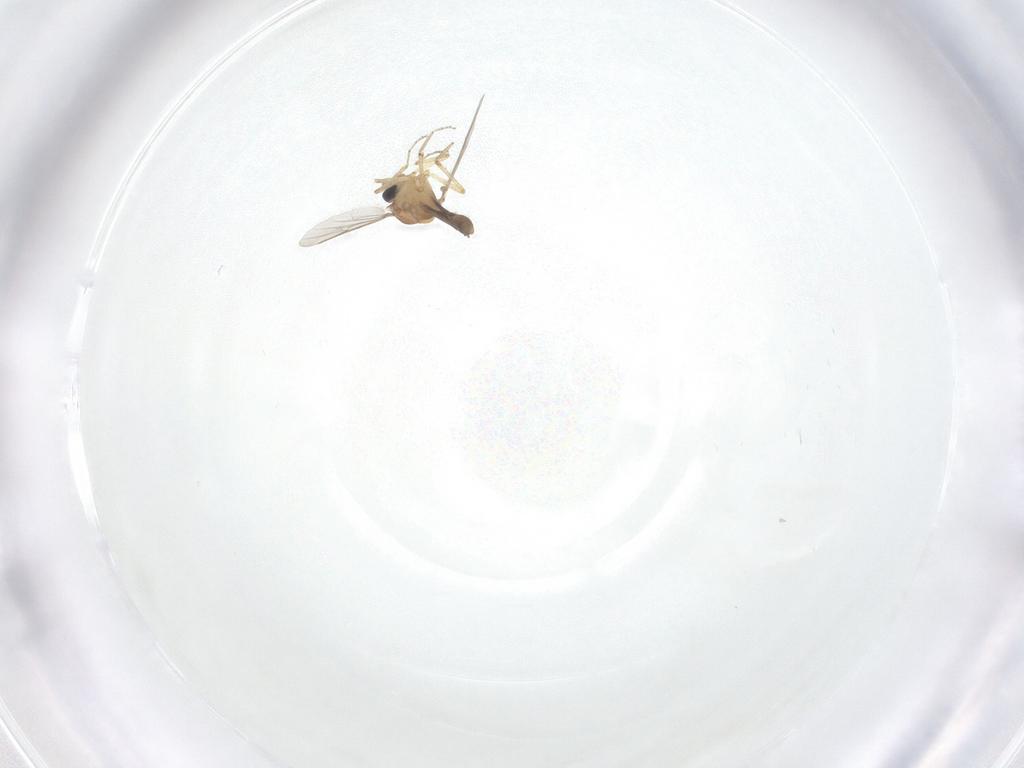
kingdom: Animalia
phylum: Arthropoda
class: Insecta
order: Diptera
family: Ceratopogonidae
